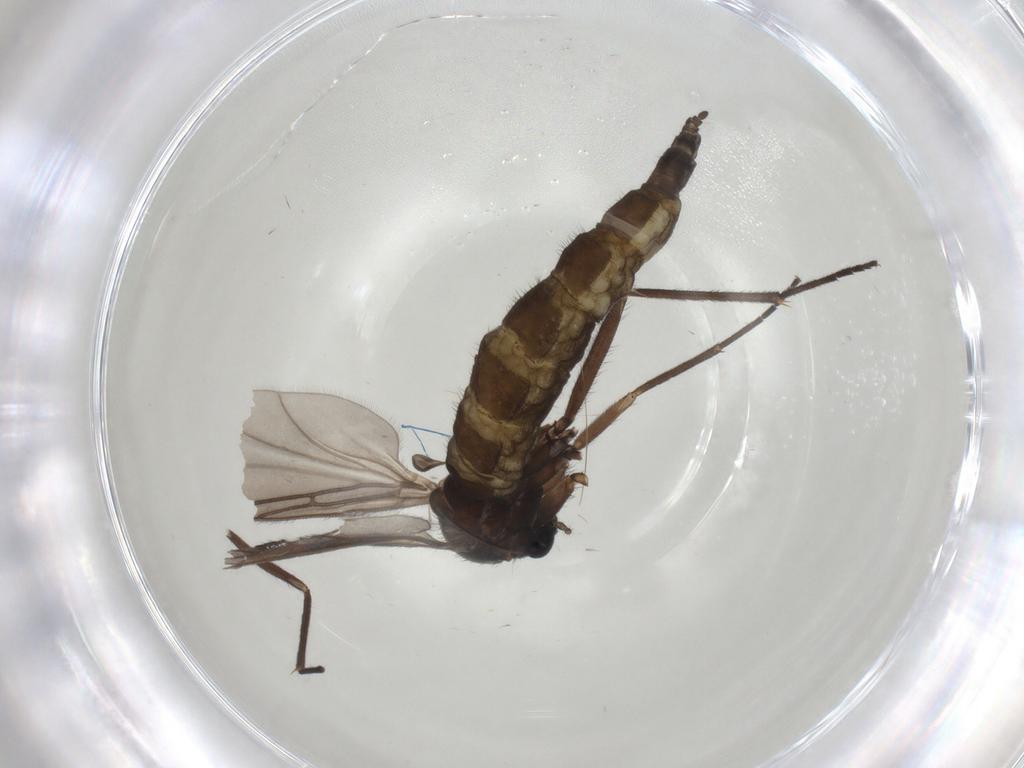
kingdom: Animalia
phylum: Arthropoda
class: Insecta
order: Diptera
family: Sciaridae
